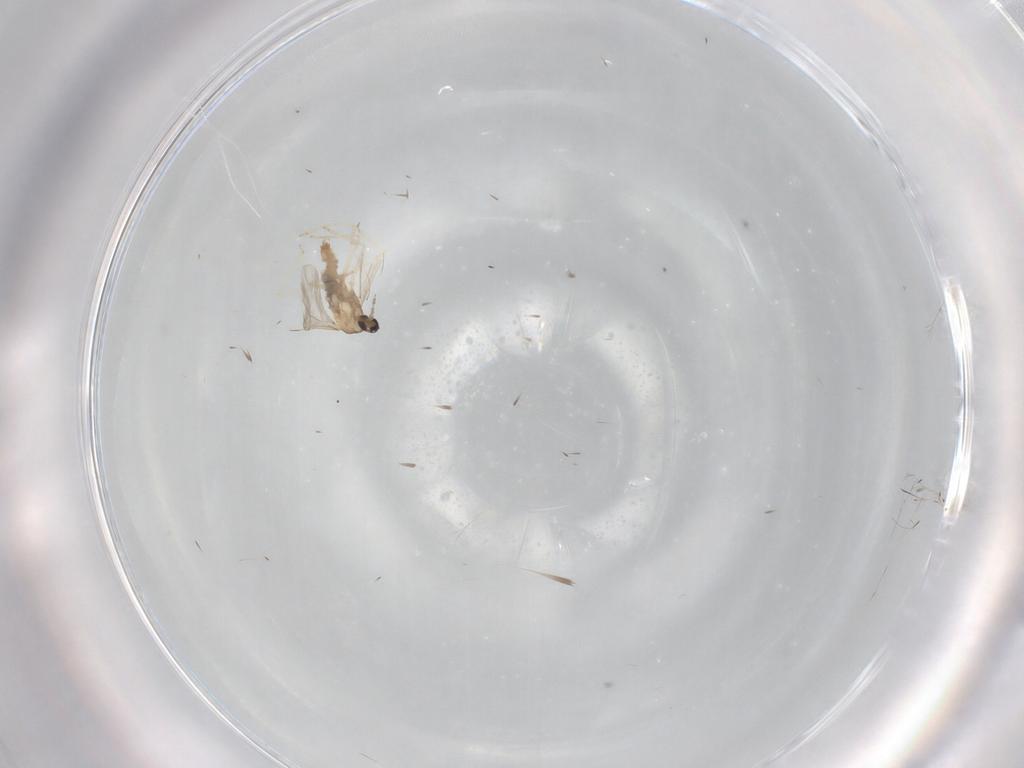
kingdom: Animalia
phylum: Arthropoda
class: Insecta
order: Diptera
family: Cecidomyiidae
